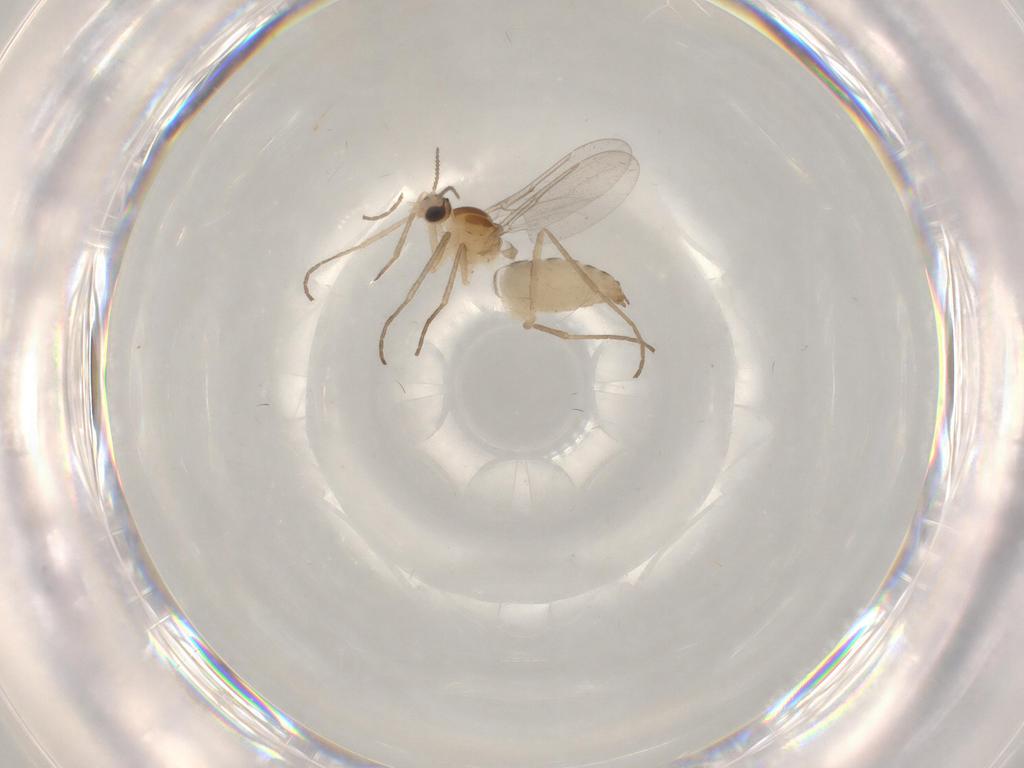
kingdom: Animalia
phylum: Arthropoda
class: Insecta
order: Diptera
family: Cecidomyiidae
